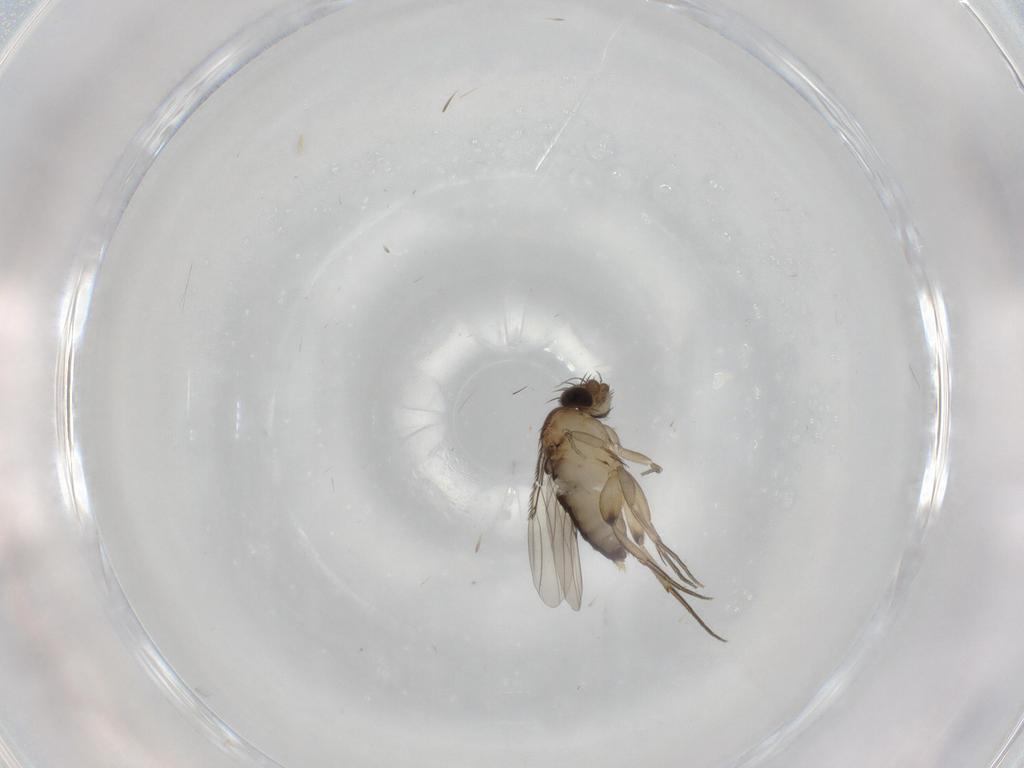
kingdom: Animalia
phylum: Arthropoda
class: Insecta
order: Diptera
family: Phoridae
